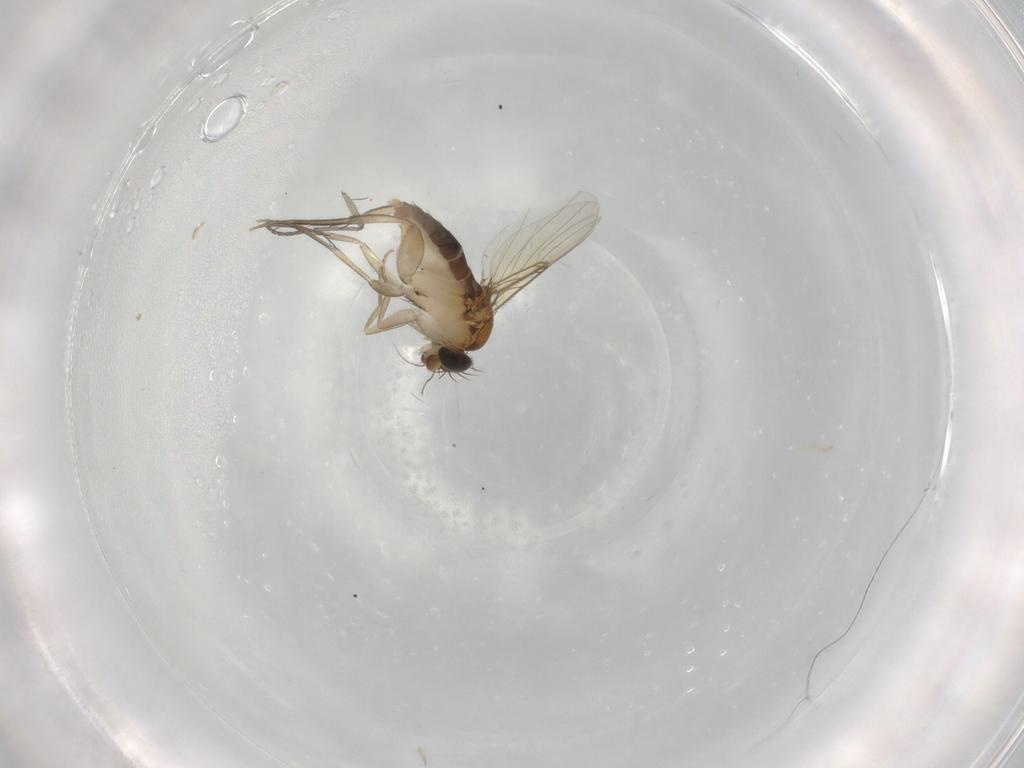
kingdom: Animalia
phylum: Arthropoda
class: Insecta
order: Diptera
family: Phoridae
